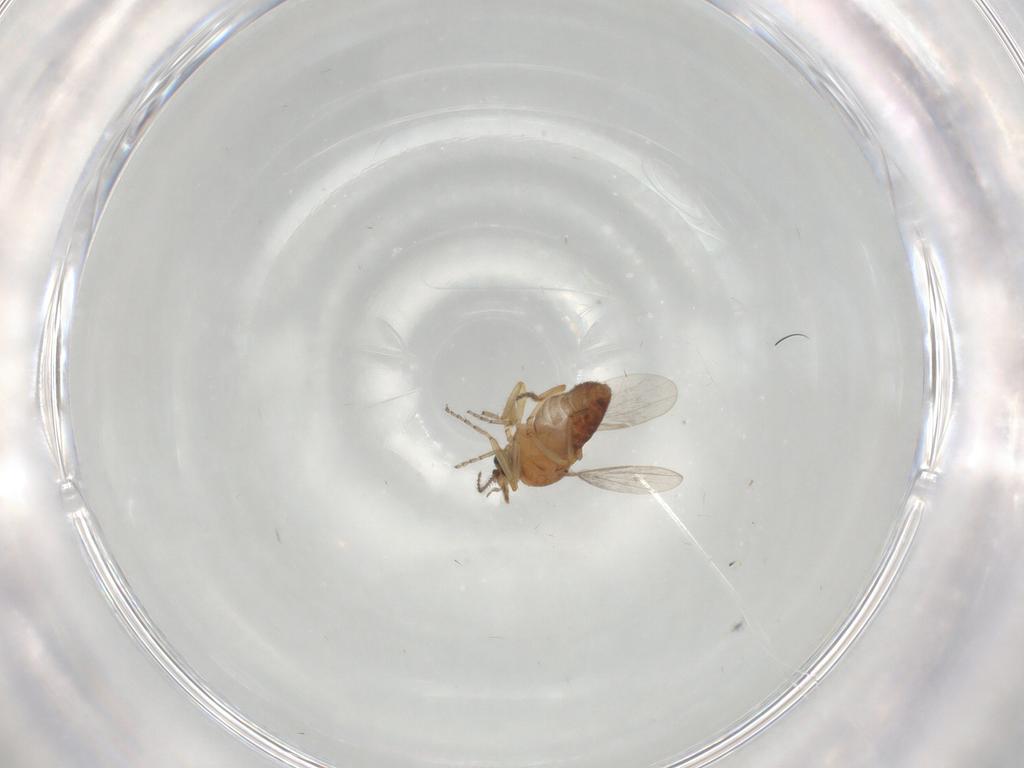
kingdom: Animalia
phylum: Arthropoda
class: Insecta
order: Diptera
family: Ceratopogonidae
